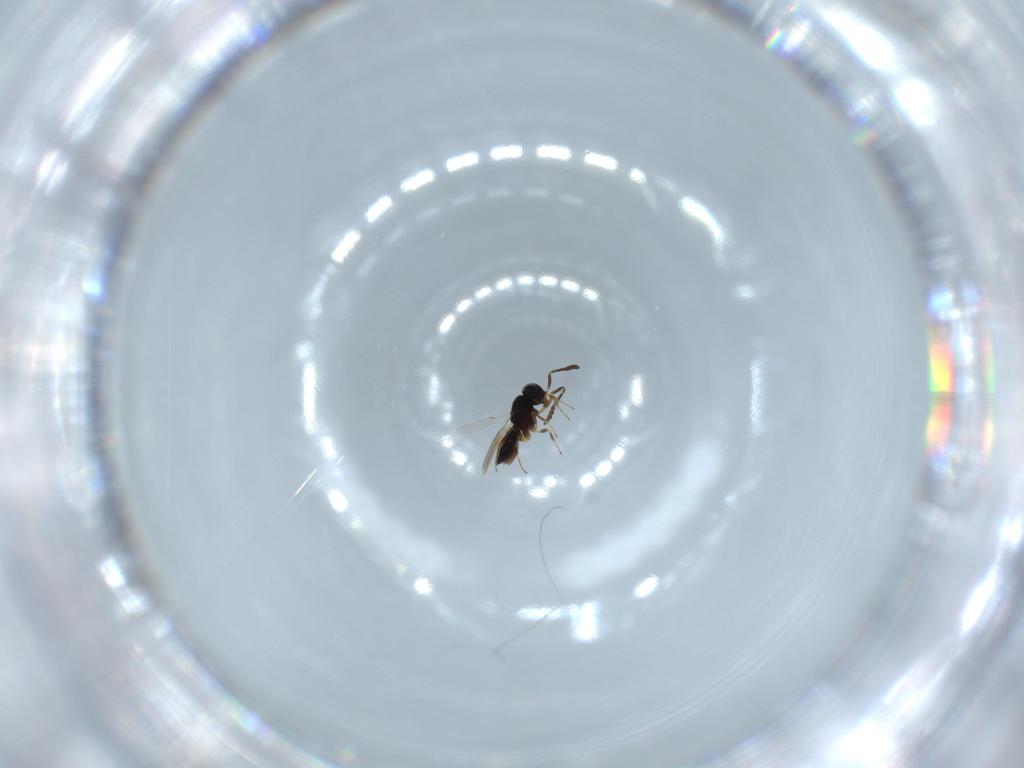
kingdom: Animalia
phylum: Arthropoda
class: Insecta
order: Hymenoptera
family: Scelionidae
